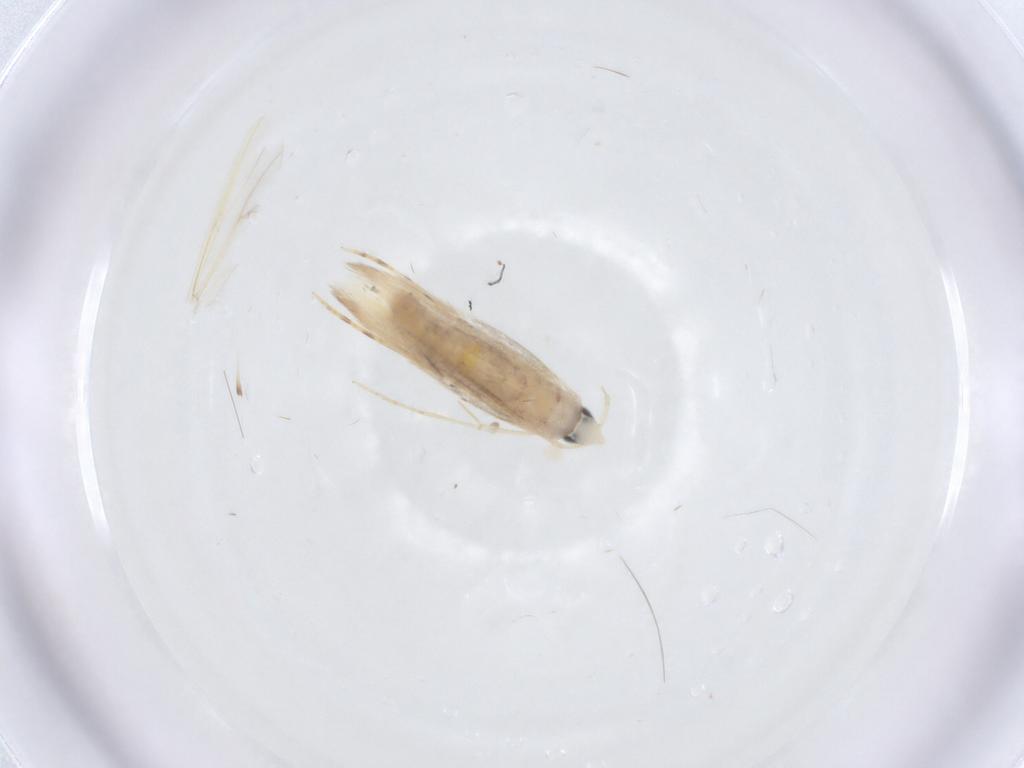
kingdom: Animalia
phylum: Arthropoda
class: Insecta
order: Lepidoptera
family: Tineidae
